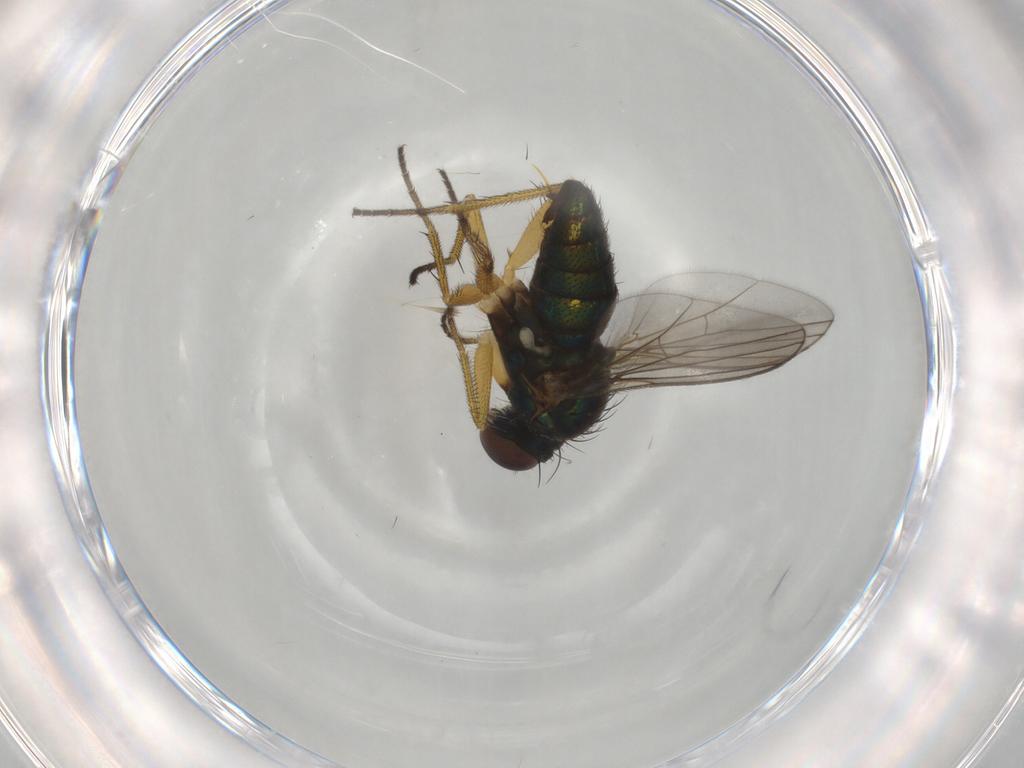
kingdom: Animalia
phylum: Arthropoda
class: Insecta
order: Diptera
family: Dolichopodidae
